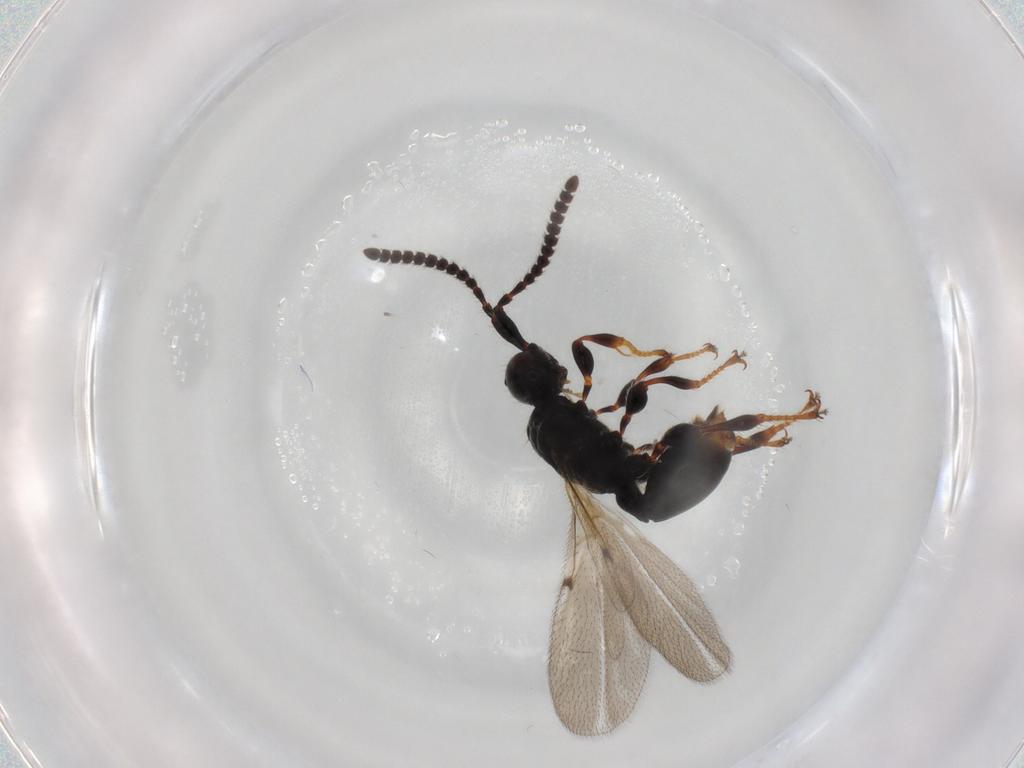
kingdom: Animalia
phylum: Arthropoda
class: Insecta
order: Hymenoptera
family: Diapriidae
